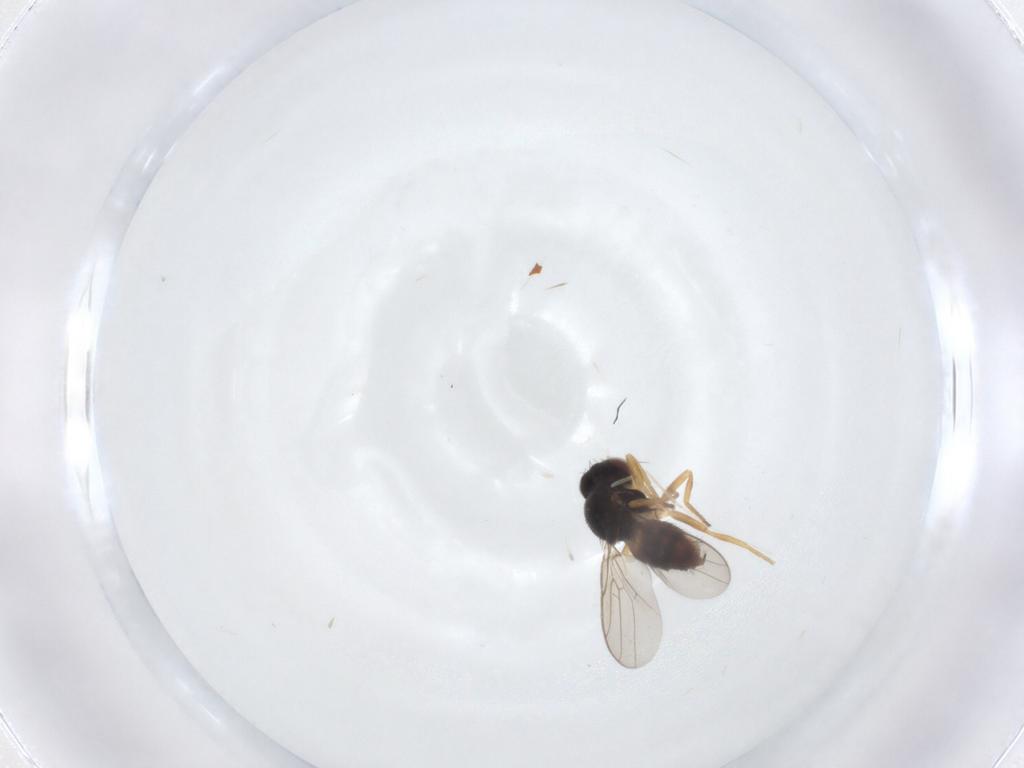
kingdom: Animalia
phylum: Arthropoda
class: Insecta
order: Diptera
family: Chloropidae
